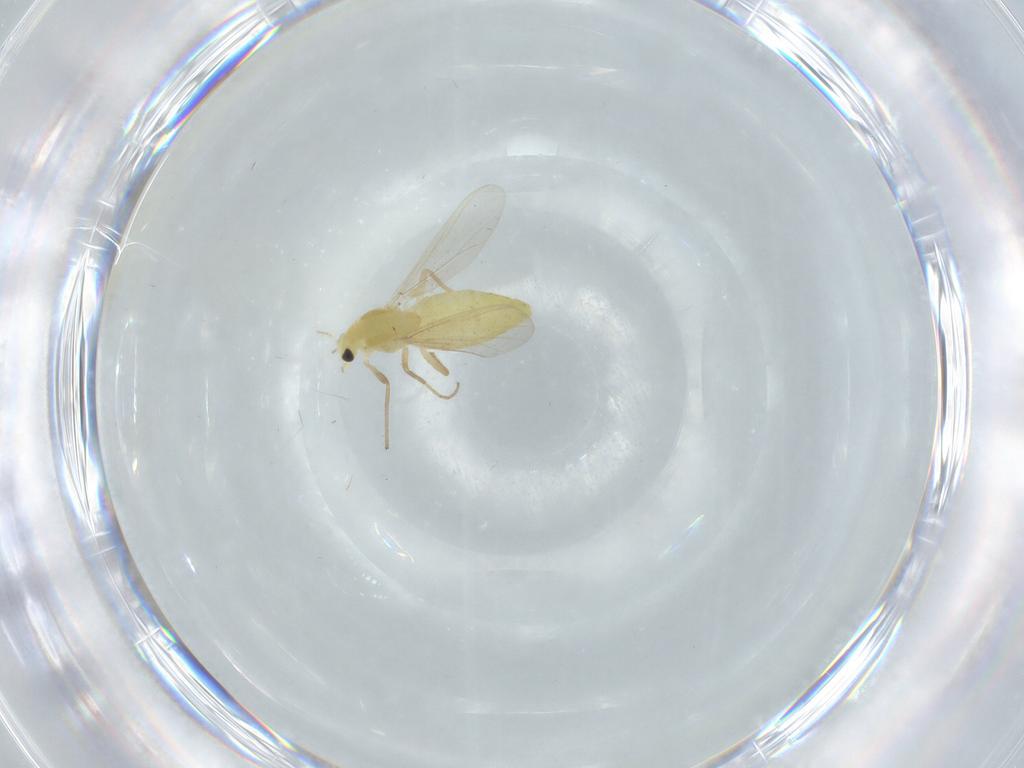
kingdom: Animalia
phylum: Arthropoda
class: Insecta
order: Diptera
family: Chironomidae
